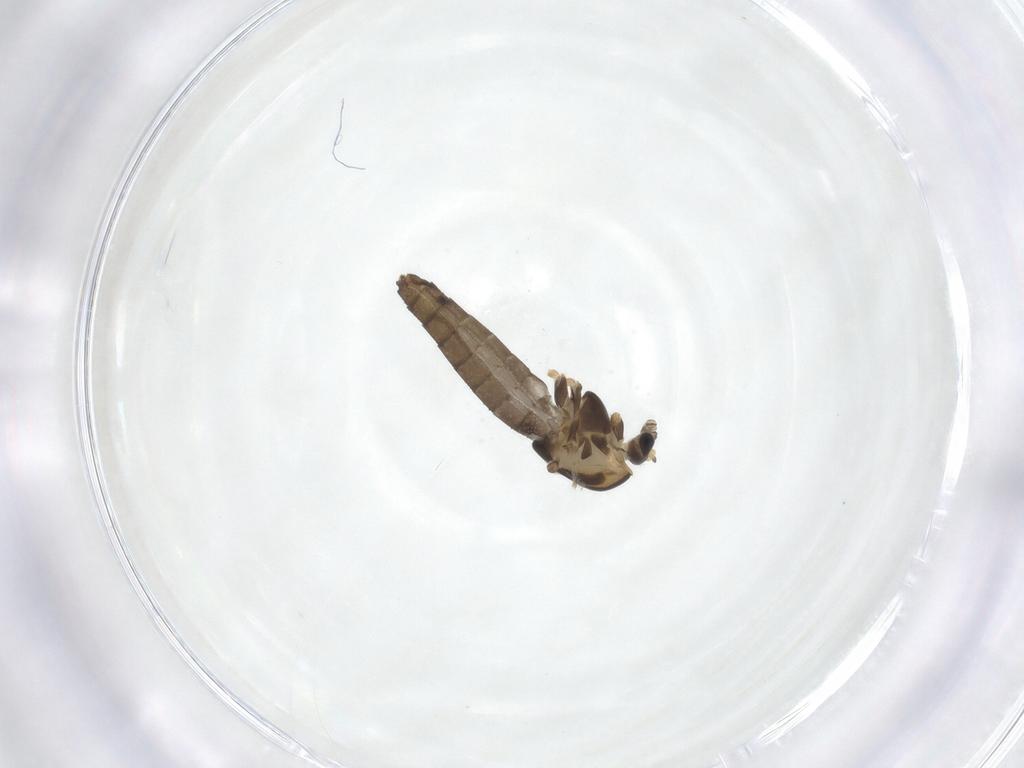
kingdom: Animalia
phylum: Arthropoda
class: Insecta
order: Diptera
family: Chironomidae
